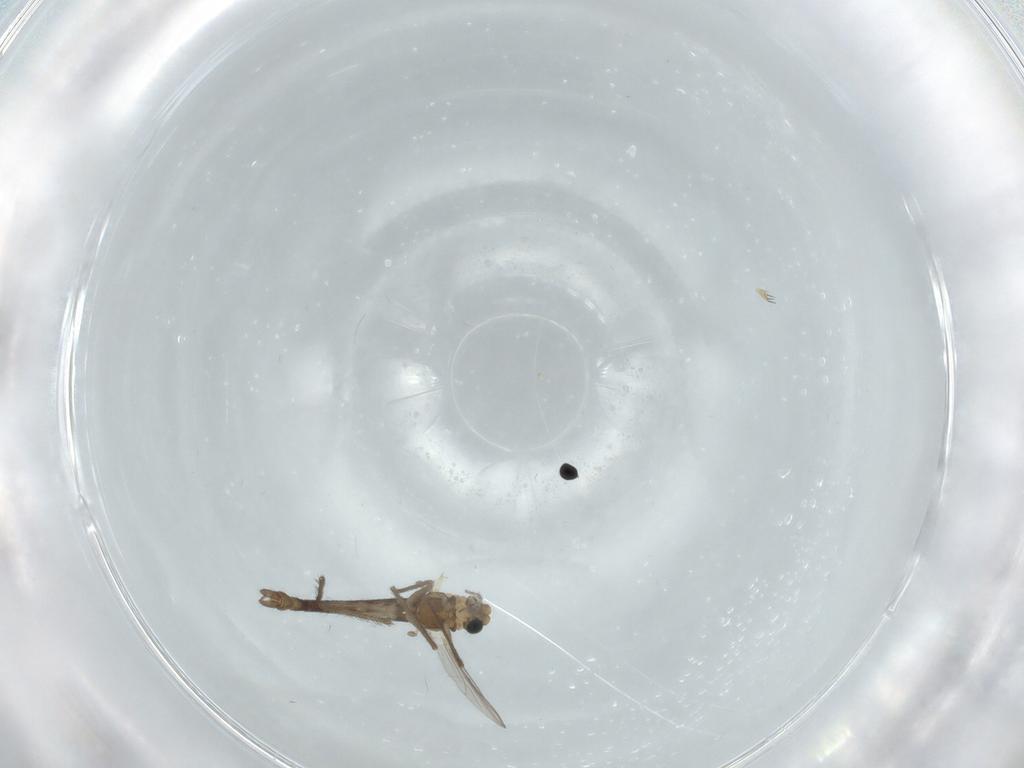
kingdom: Animalia
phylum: Arthropoda
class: Insecta
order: Diptera
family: Chironomidae
